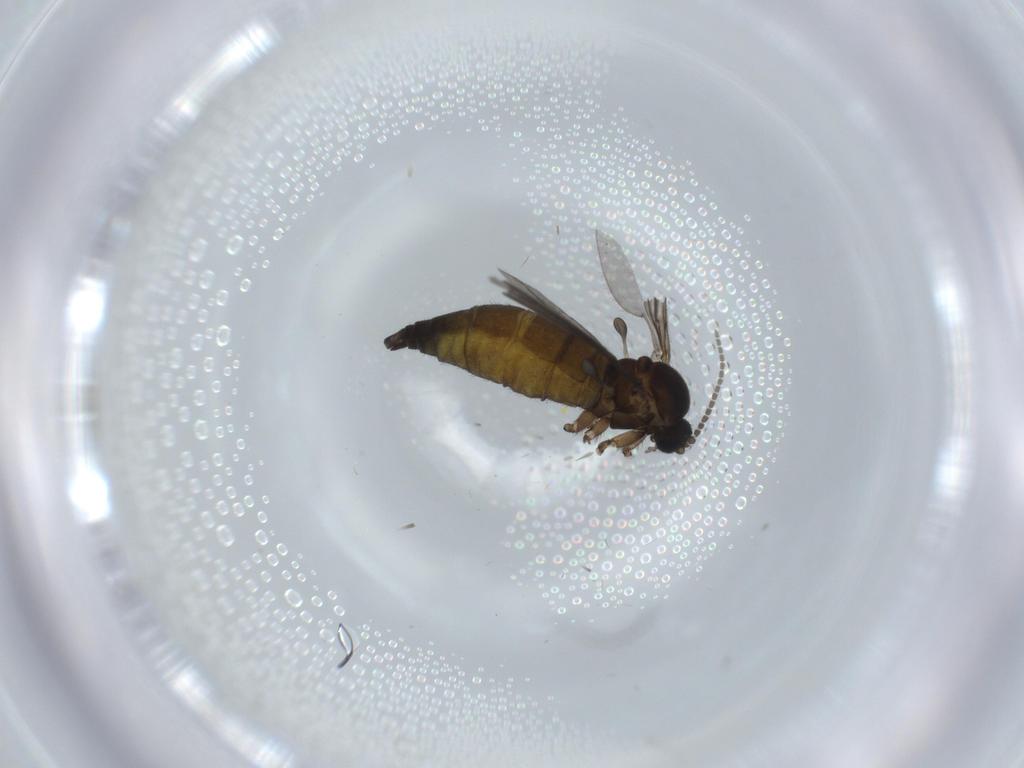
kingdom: Animalia
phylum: Arthropoda
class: Insecta
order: Diptera
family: Sciaridae
